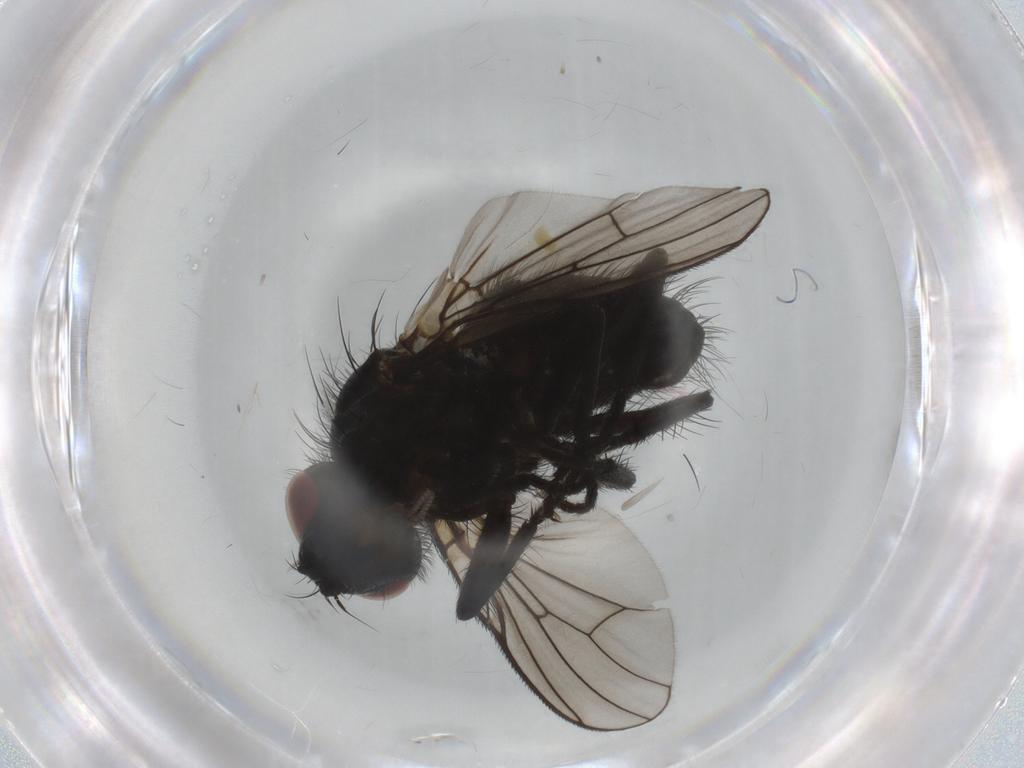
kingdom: Animalia
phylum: Arthropoda
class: Insecta
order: Diptera
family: Muscidae
